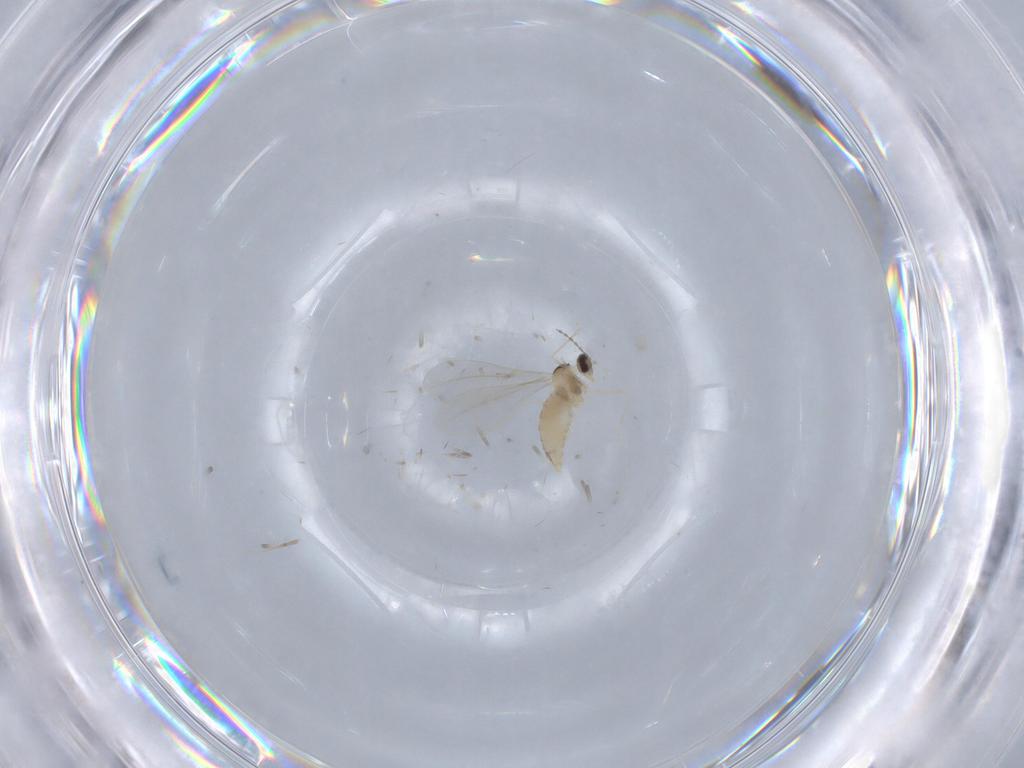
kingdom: Animalia
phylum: Arthropoda
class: Insecta
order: Diptera
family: Cecidomyiidae
